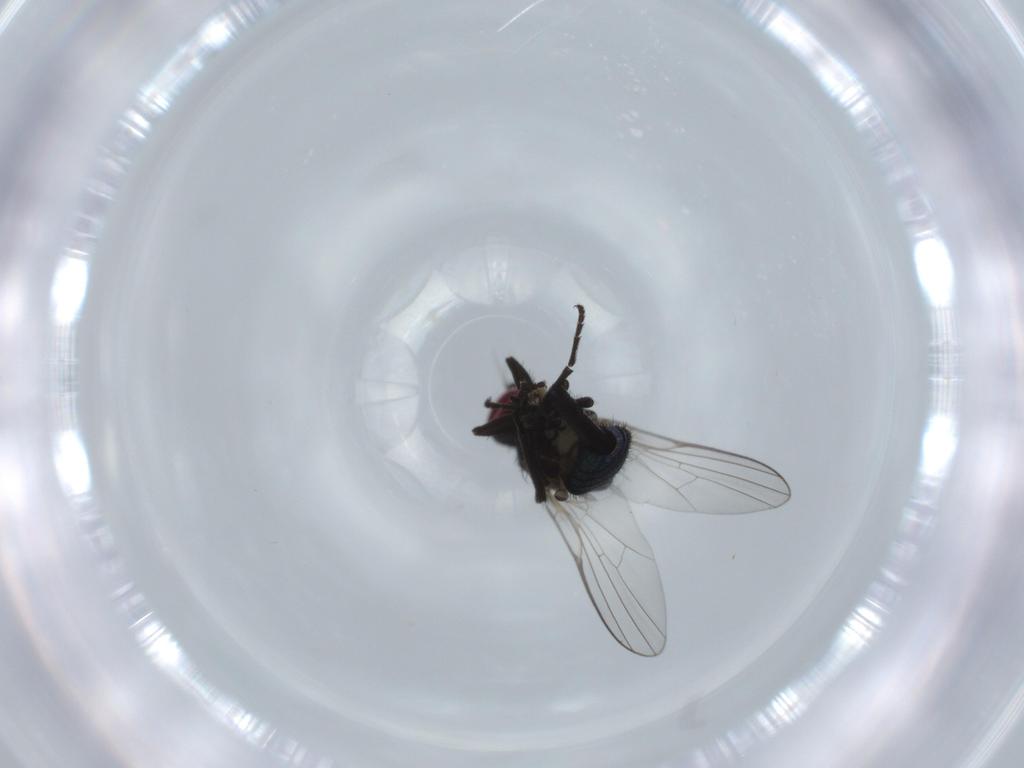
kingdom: Animalia
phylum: Arthropoda
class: Insecta
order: Diptera
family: Agromyzidae
